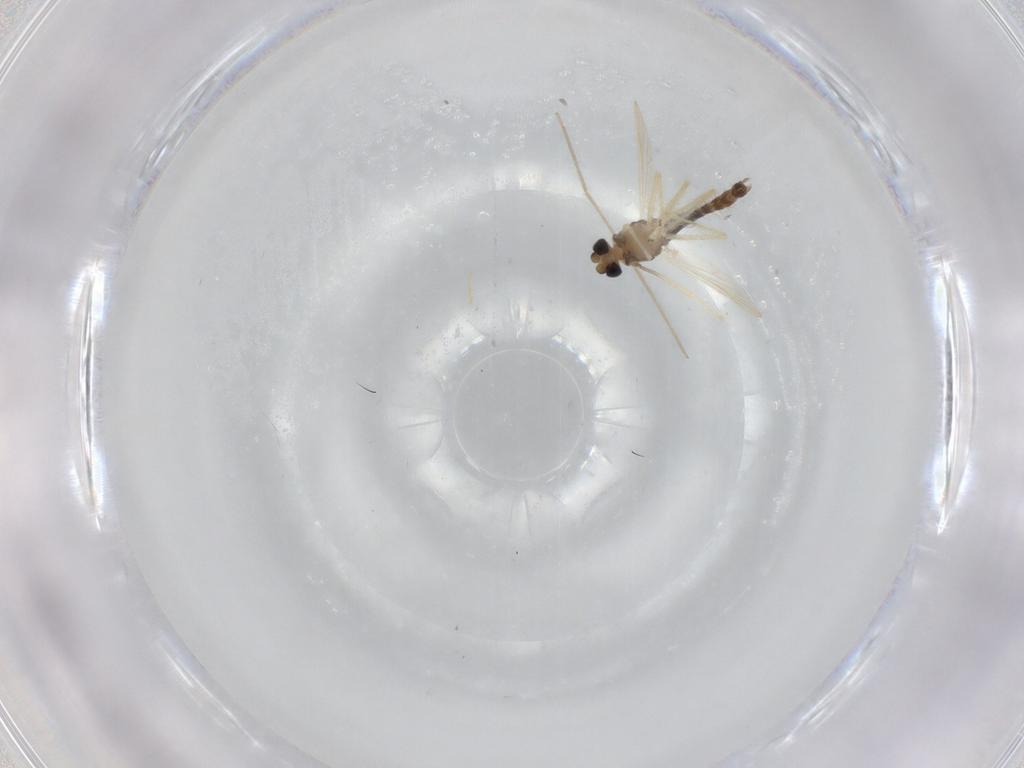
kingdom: Animalia
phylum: Arthropoda
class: Insecta
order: Diptera
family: Chironomidae
